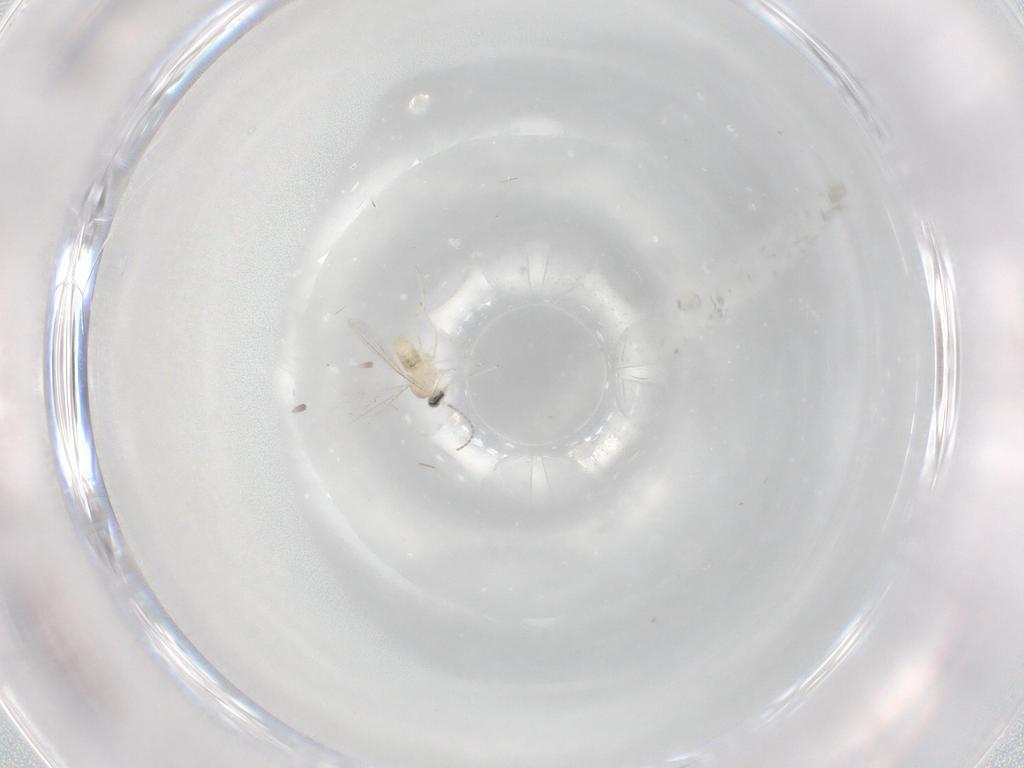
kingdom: Animalia
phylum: Arthropoda
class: Insecta
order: Diptera
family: Cecidomyiidae
